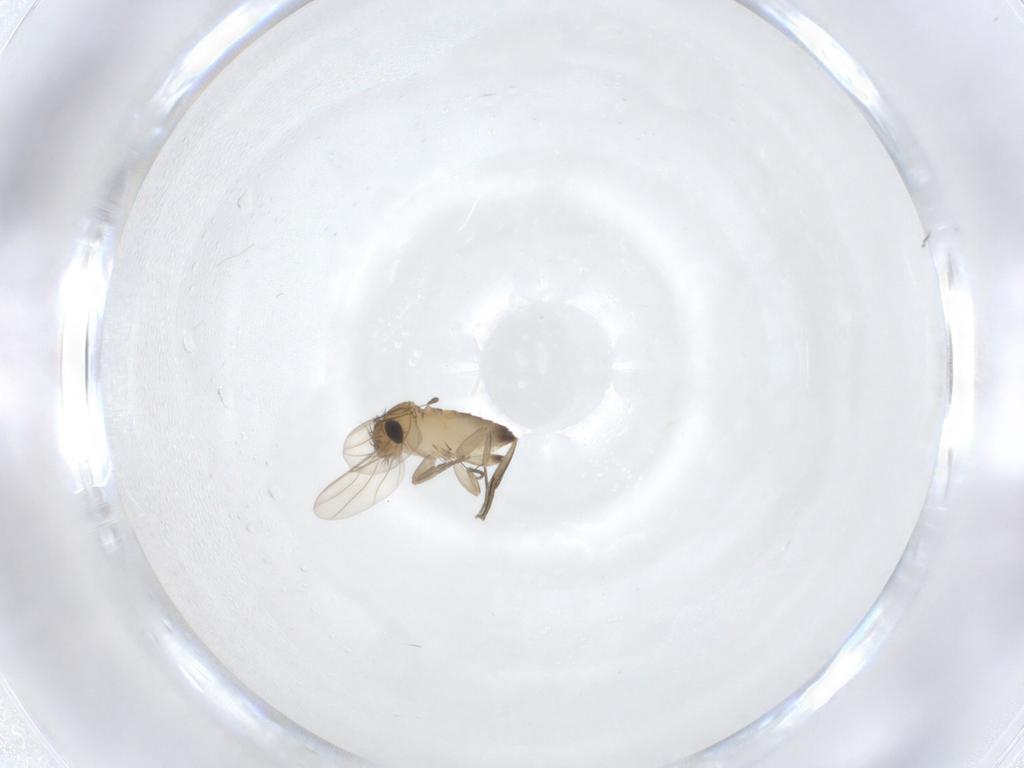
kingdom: Animalia
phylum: Arthropoda
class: Insecta
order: Diptera
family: Phoridae
